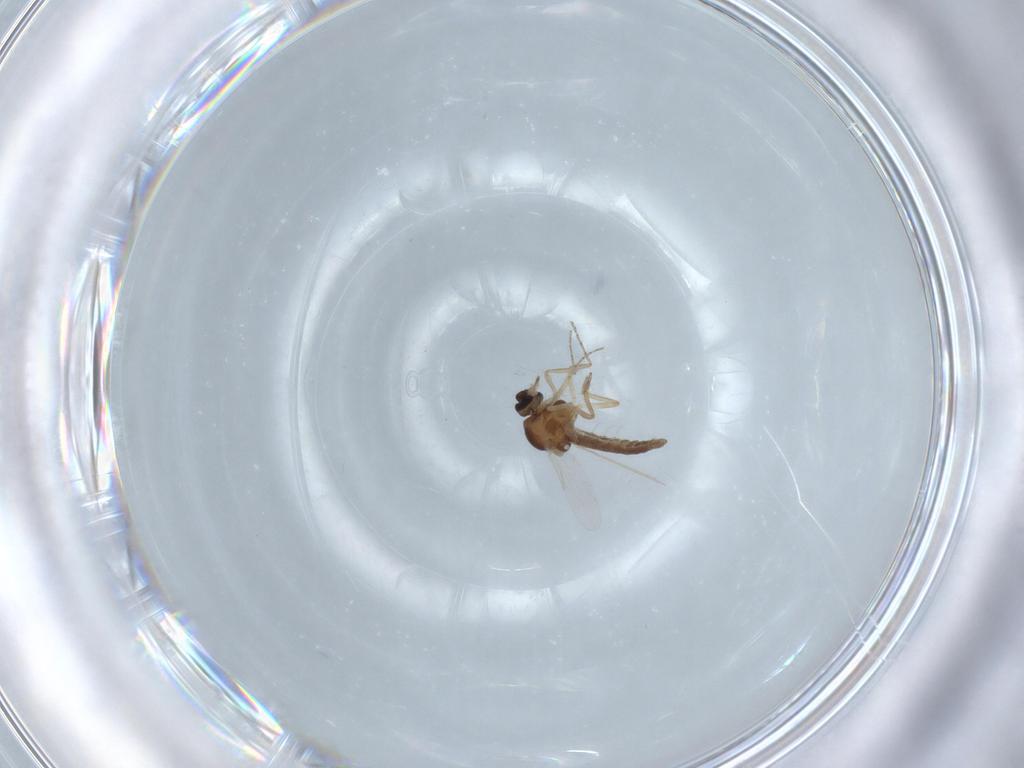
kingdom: Animalia
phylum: Arthropoda
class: Insecta
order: Diptera
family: Ceratopogonidae
